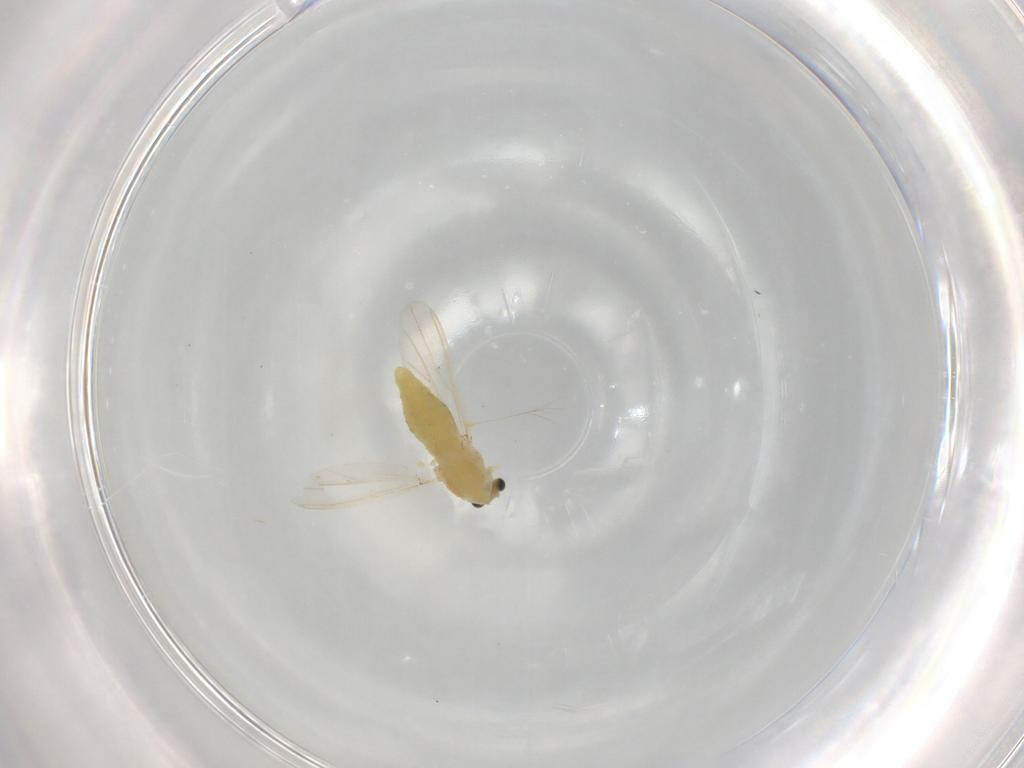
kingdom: Animalia
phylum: Arthropoda
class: Insecta
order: Diptera
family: Chironomidae
